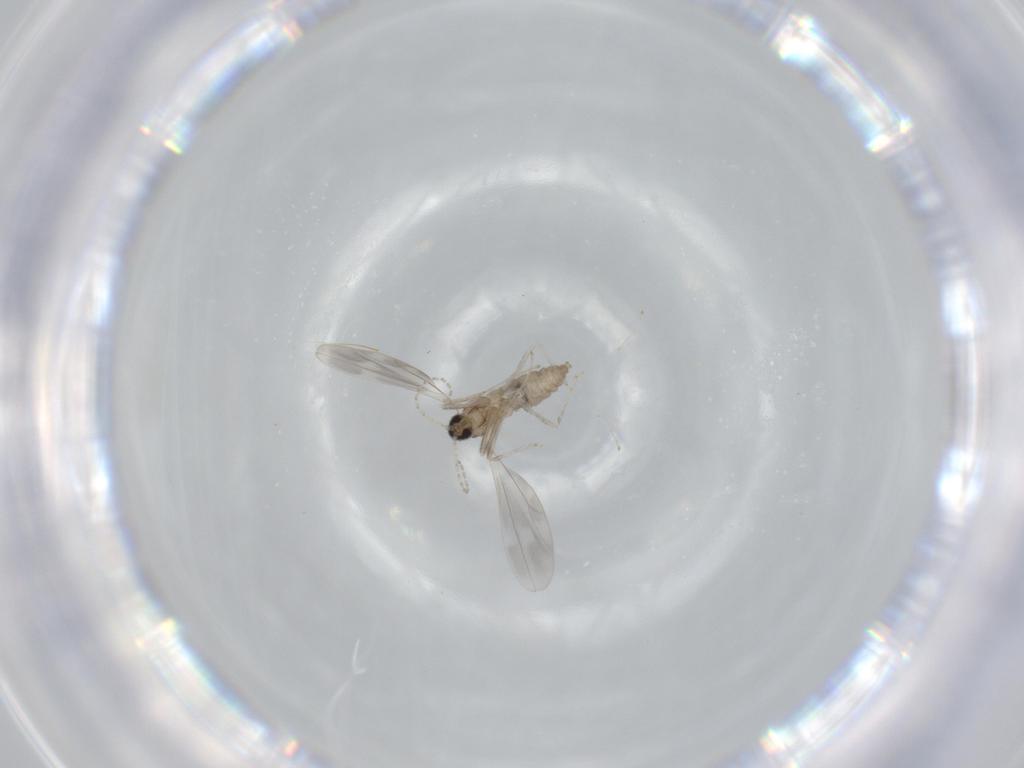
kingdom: Animalia
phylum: Arthropoda
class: Insecta
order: Diptera
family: Cecidomyiidae
